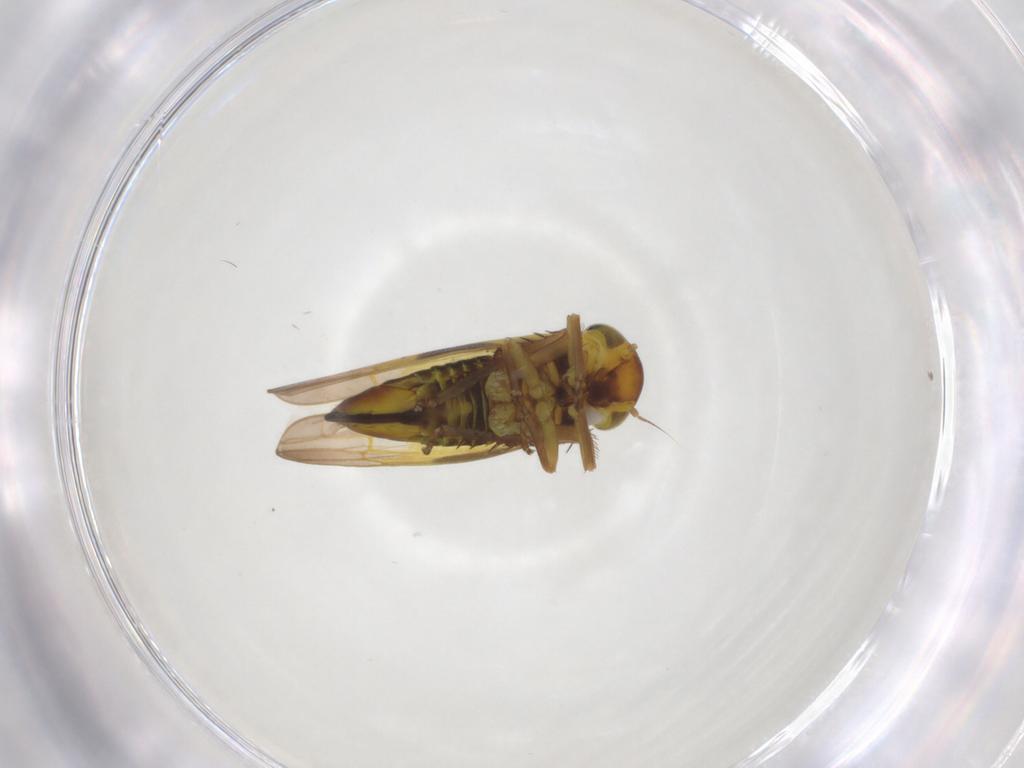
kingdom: Animalia
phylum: Arthropoda
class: Insecta
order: Hemiptera
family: Cicadellidae
